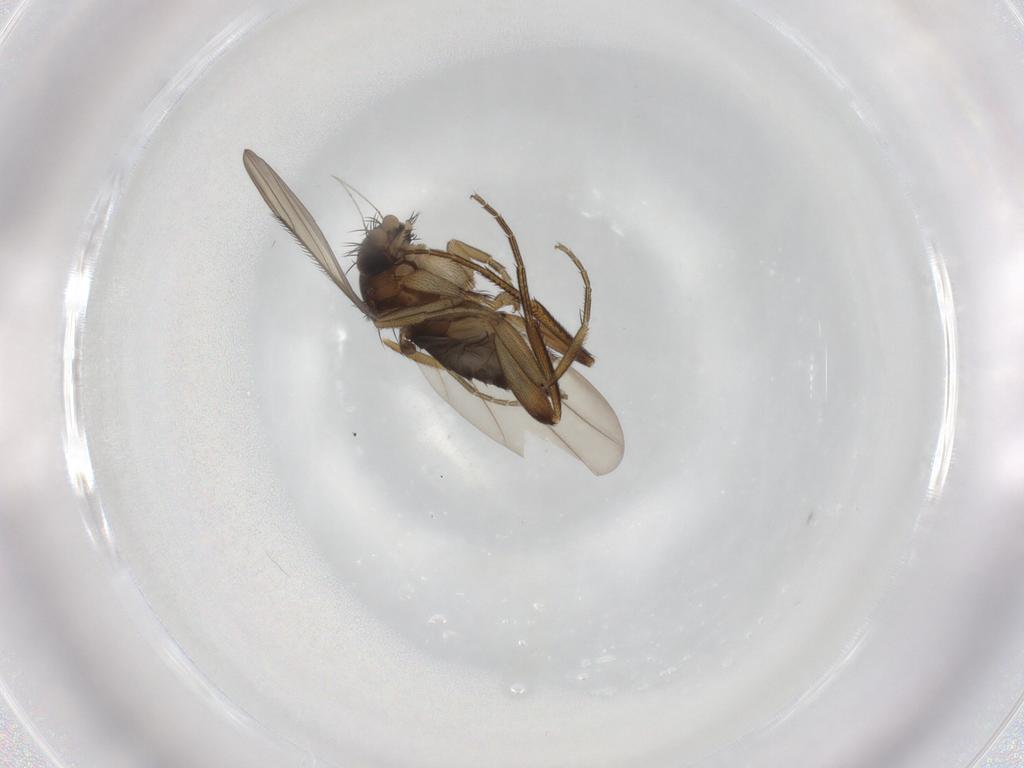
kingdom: Animalia
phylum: Arthropoda
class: Insecta
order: Diptera
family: Phoridae
